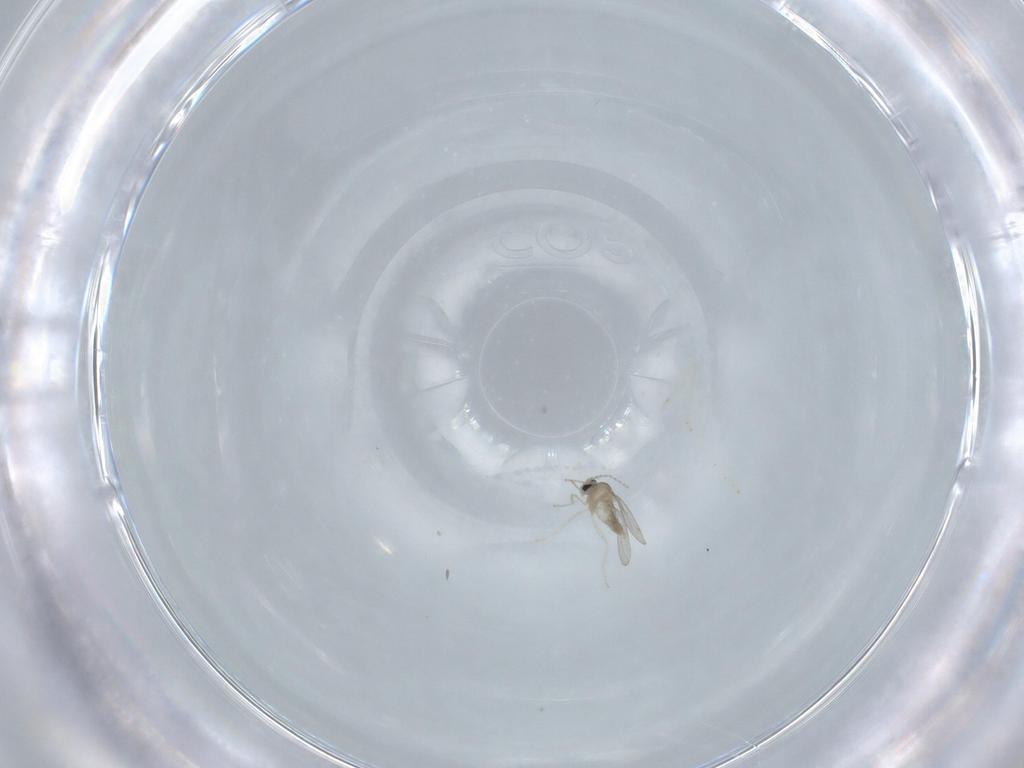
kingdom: Animalia
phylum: Arthropoda
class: Insecta
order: Diptera
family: Cecidomyiidae
